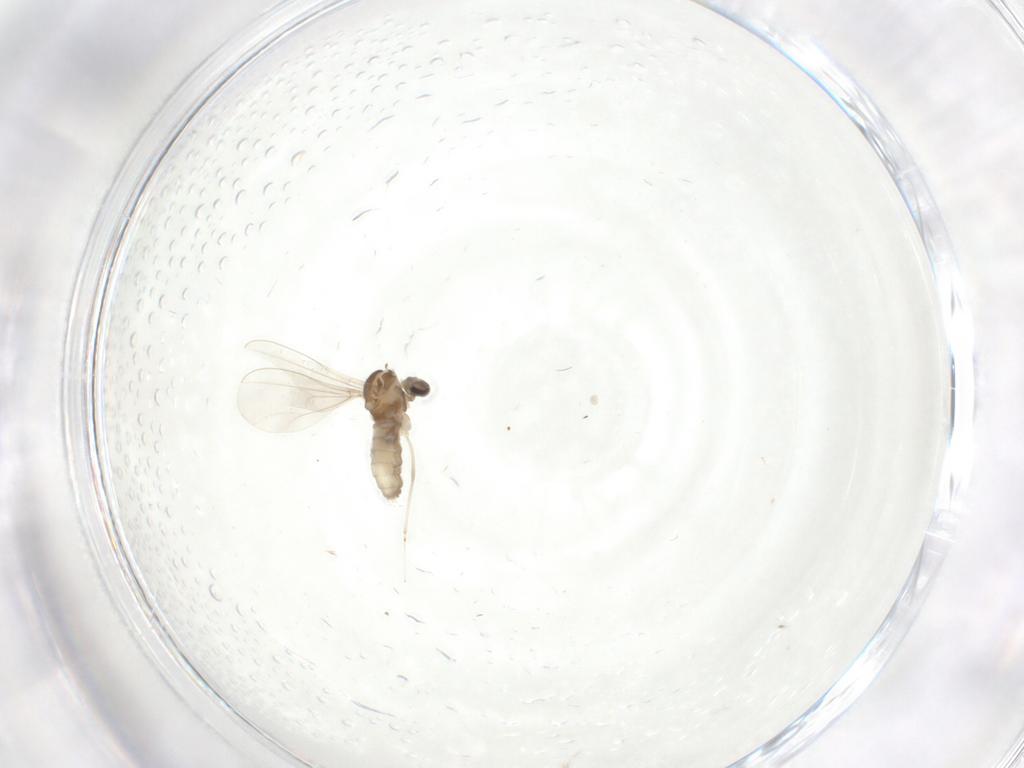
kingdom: Animalia
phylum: Arthropoda
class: Insecta
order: Diptera
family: Cecidomyiidae
